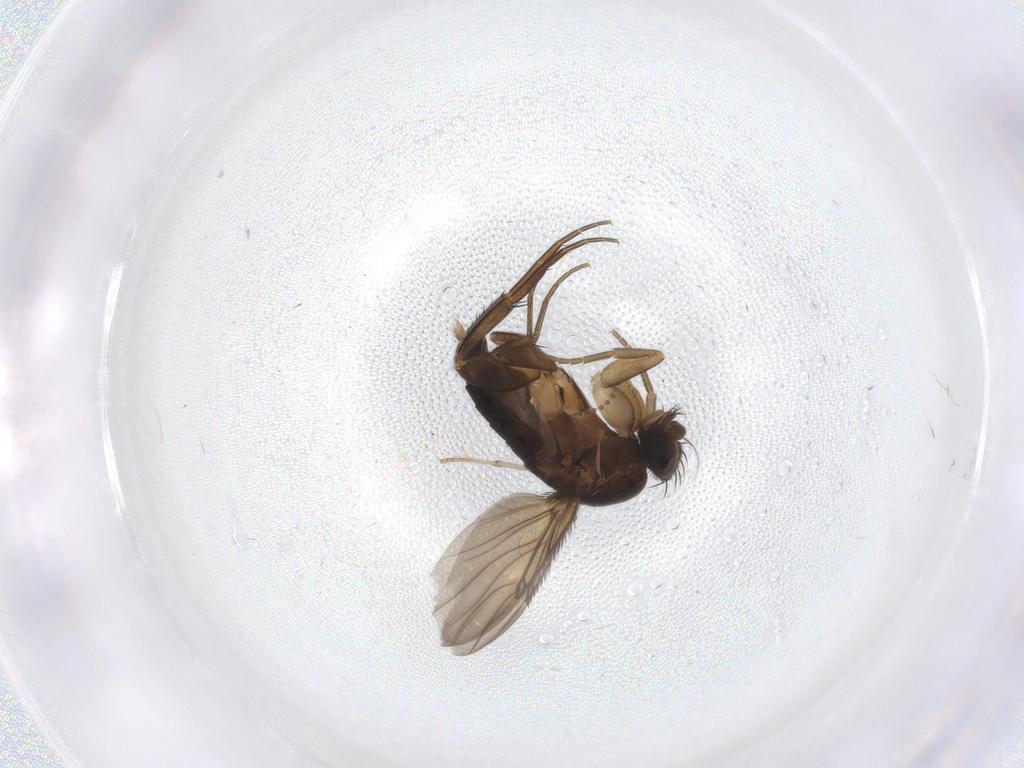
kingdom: Animalia
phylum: Arthropoda
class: Insecta
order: Diptera
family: Psychodidae
